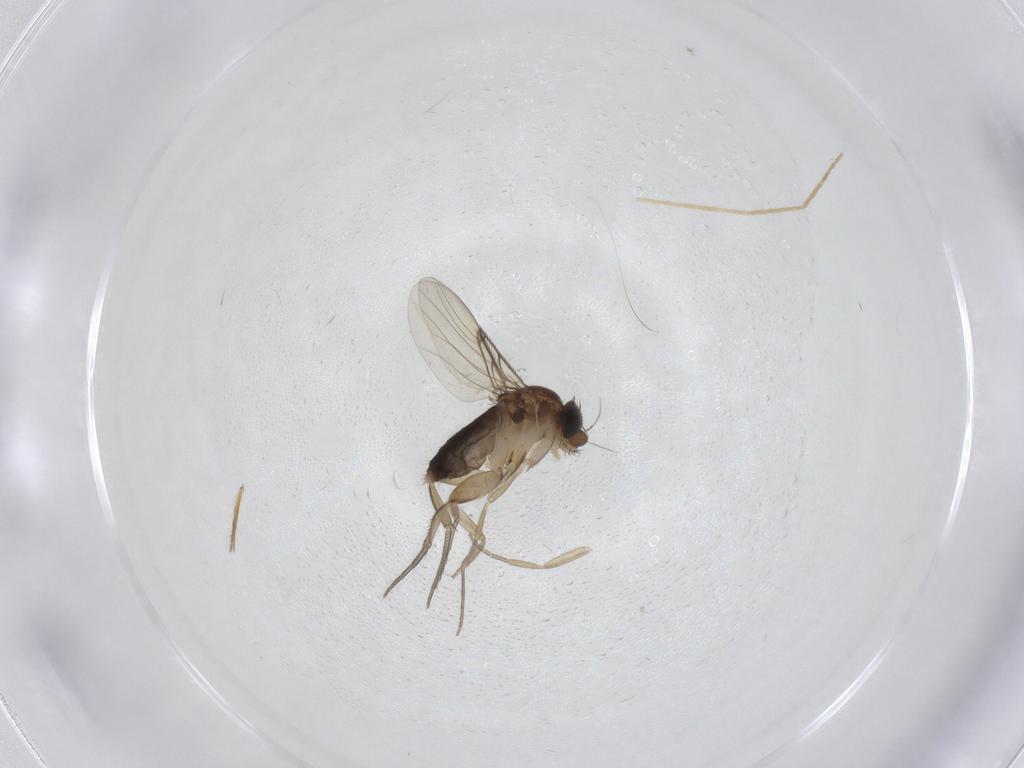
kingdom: Animalia
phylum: Arthropoda
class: Insecta
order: Diptera
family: Phoridae
